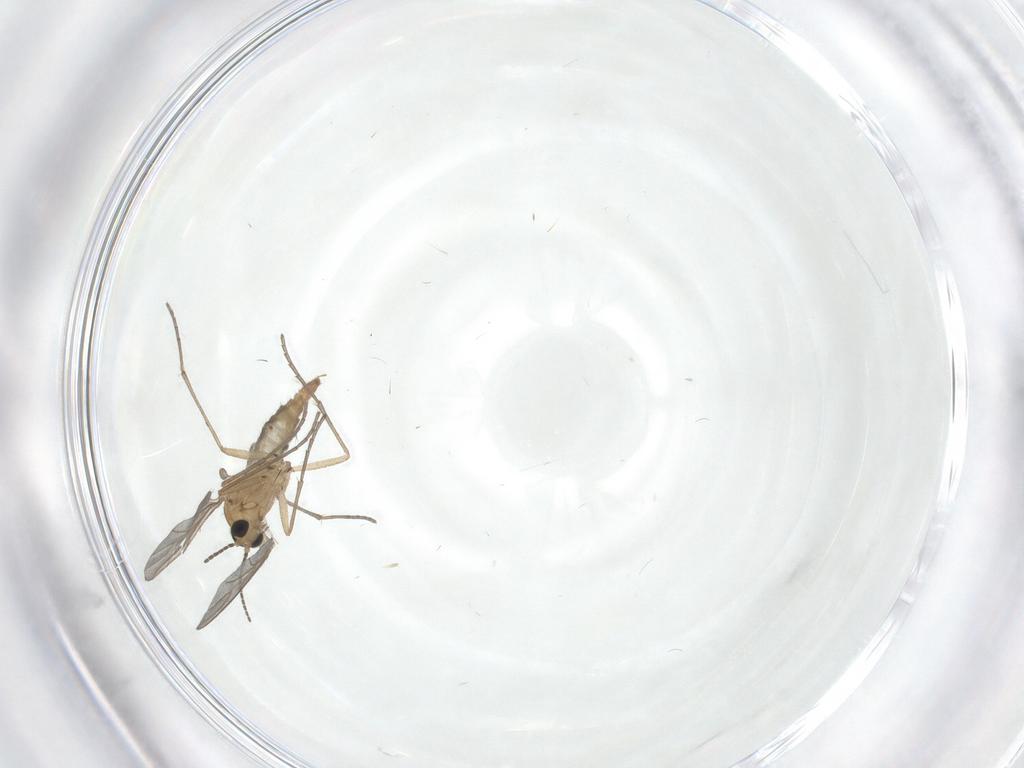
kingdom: Animalia
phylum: Arthropoda
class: Insecta
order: Diptera
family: Sciaridae
